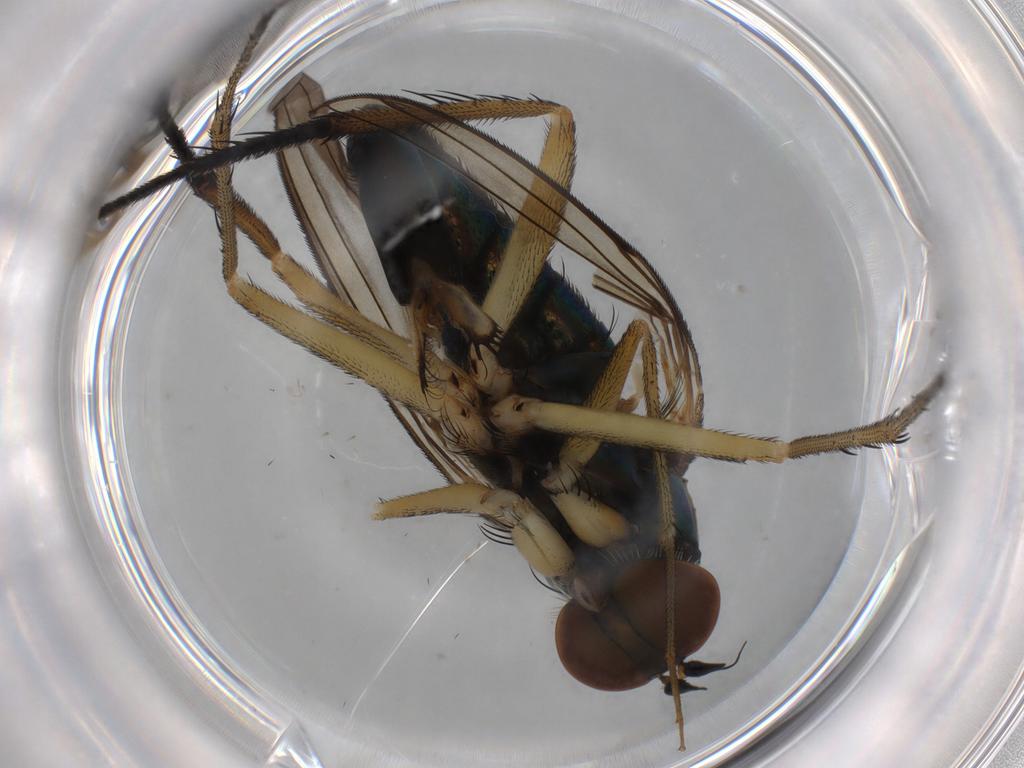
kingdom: Animalia
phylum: Arthropoda
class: Insecta
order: Diptera
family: Dolichopodidae
